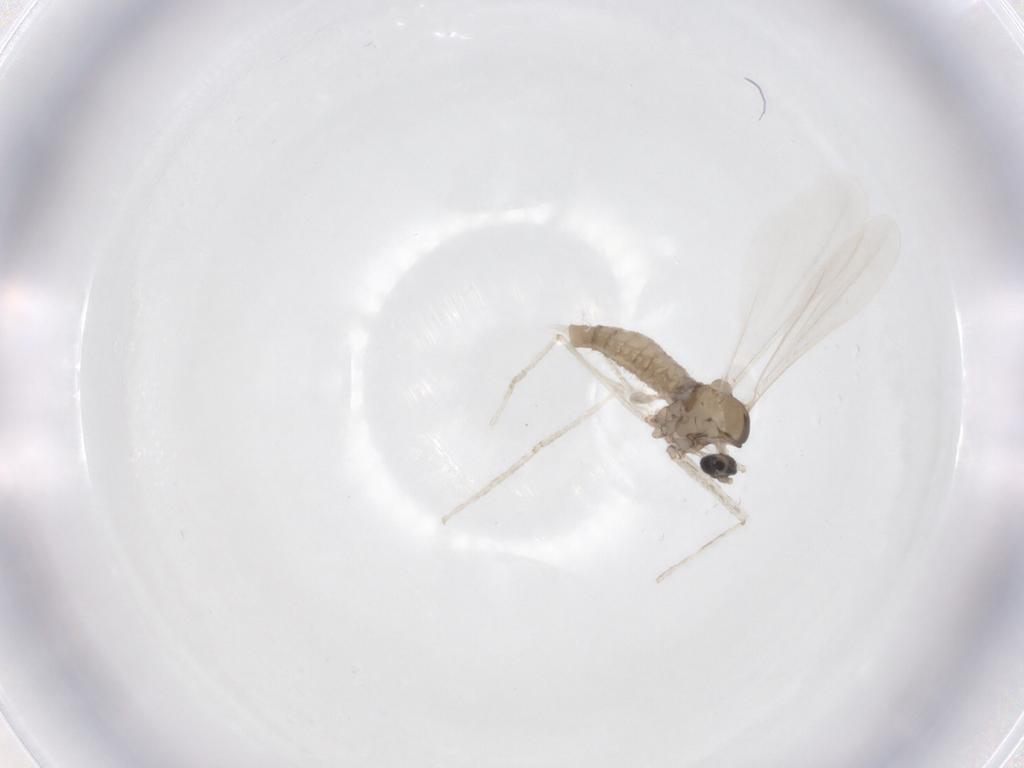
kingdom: Animalia
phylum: Arthropoda
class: Insecta
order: Diptera
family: Cecidomyiidae
